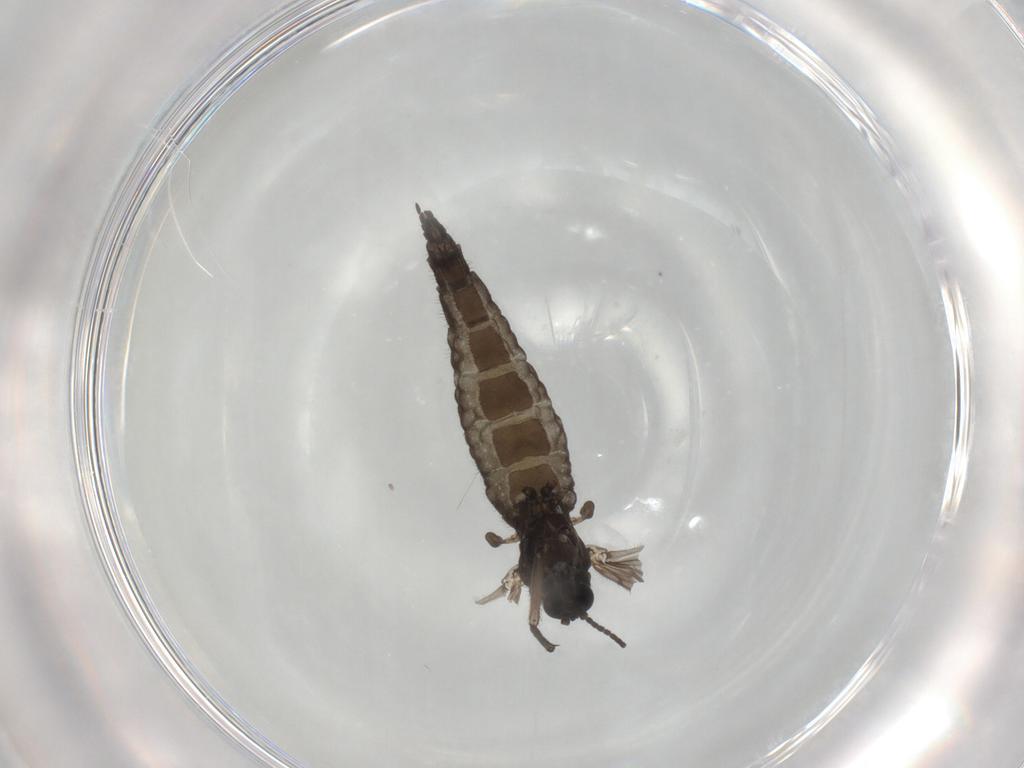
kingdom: Animalia
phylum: Arthropoda
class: Insecta
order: Diptera
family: Sciaridae
